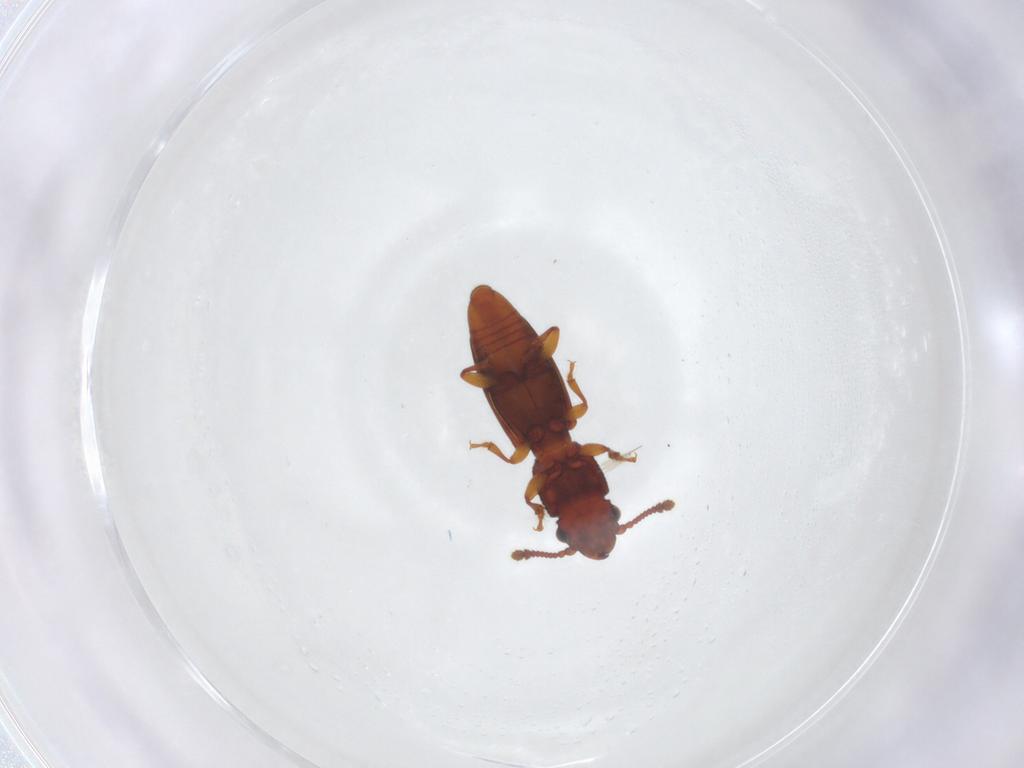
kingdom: Animalia
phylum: Arthropoda
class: Insecta
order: Coleoptera
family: Monotomidae
